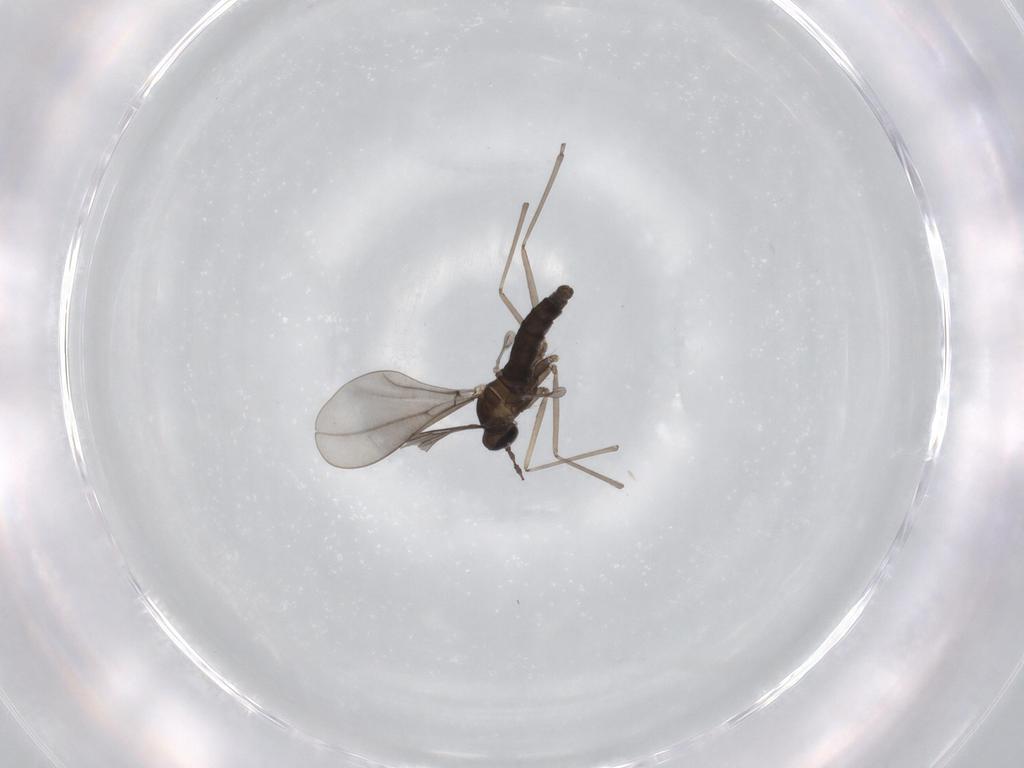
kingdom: Animalia
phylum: Arthropoda
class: Insecta
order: Diptera
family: Cecidomyiidae
